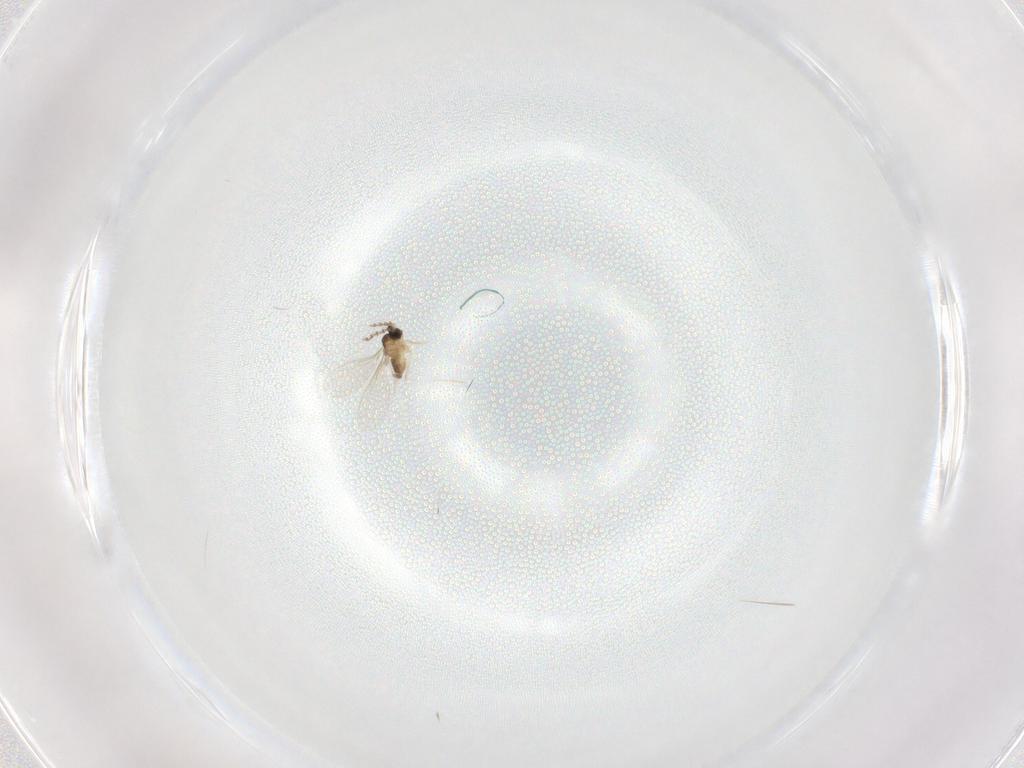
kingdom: Animalia
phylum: Arthropoda
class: Insecta
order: Diptera
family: Cecidomyiidae
